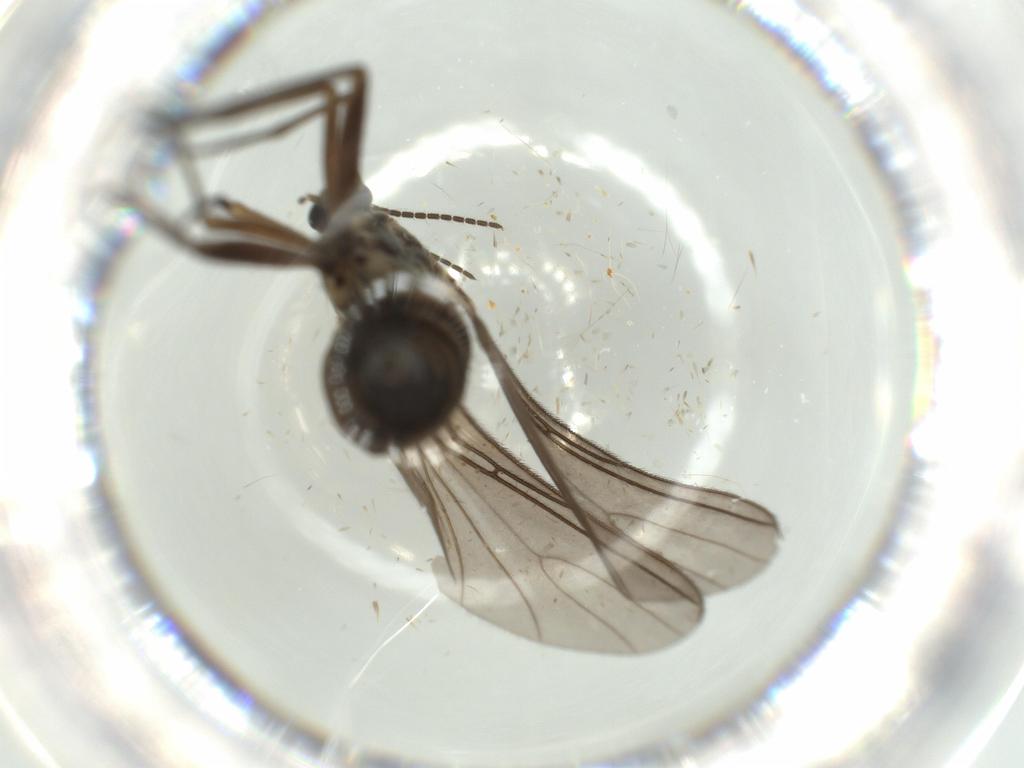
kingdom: Animalia
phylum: Arthropoda
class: Insecta
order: Diptera
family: Sciaridae
